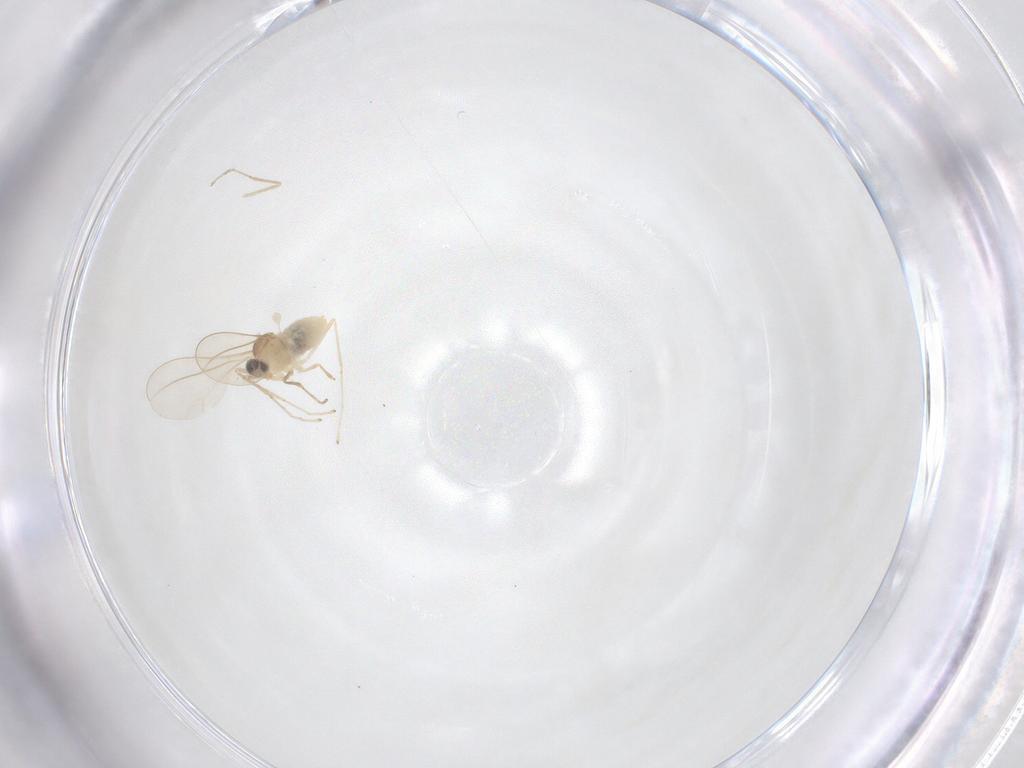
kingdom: Animalia
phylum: Arthropoda
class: Insecta
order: Diptera
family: Cecidomyiidae
